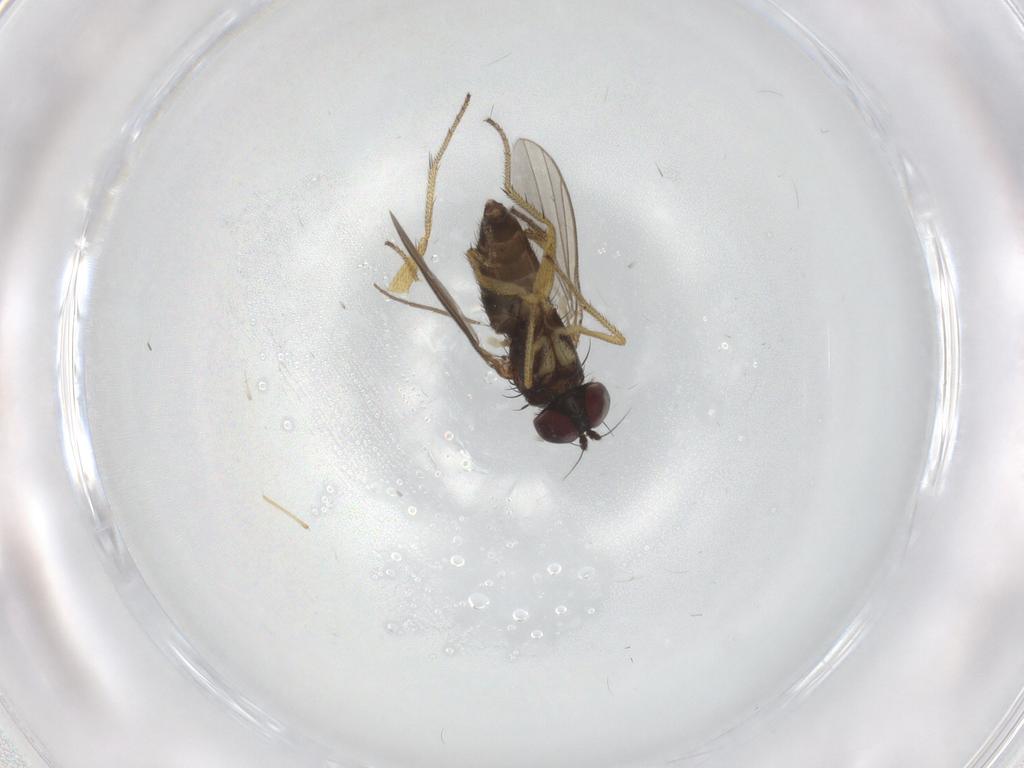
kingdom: Animalia
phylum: Arthropoda
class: Insecta
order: Diptera
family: Dolichopodidae
